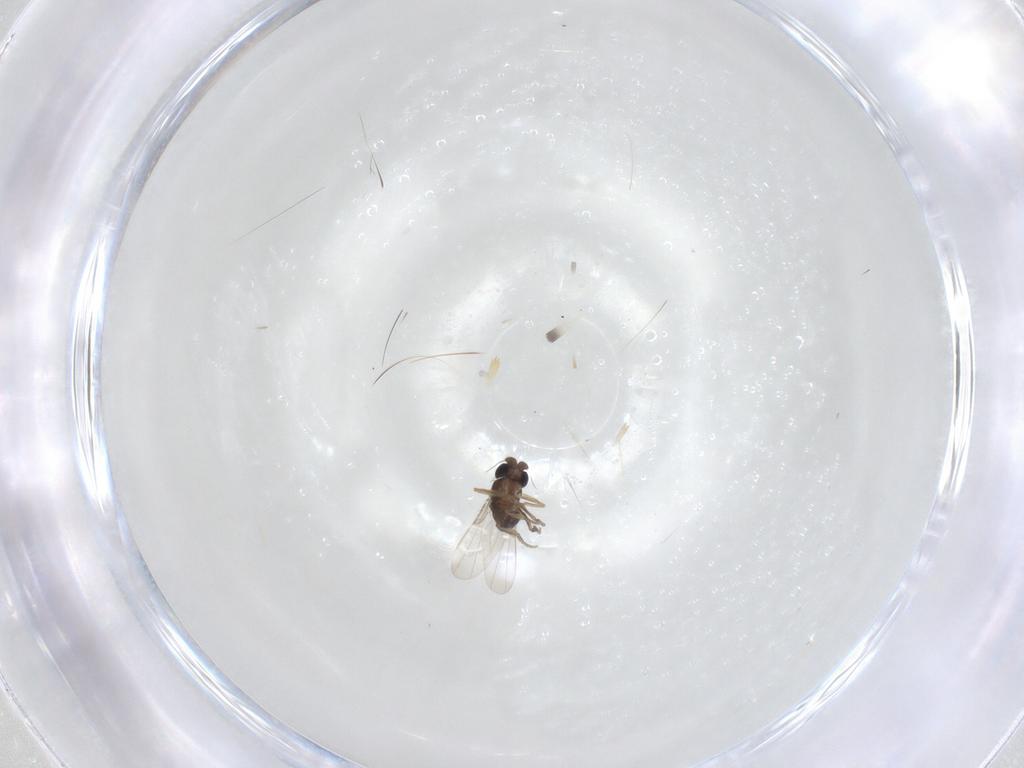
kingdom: Animalia
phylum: Arthropoda
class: Insecta
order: Diptera
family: Phoridae
